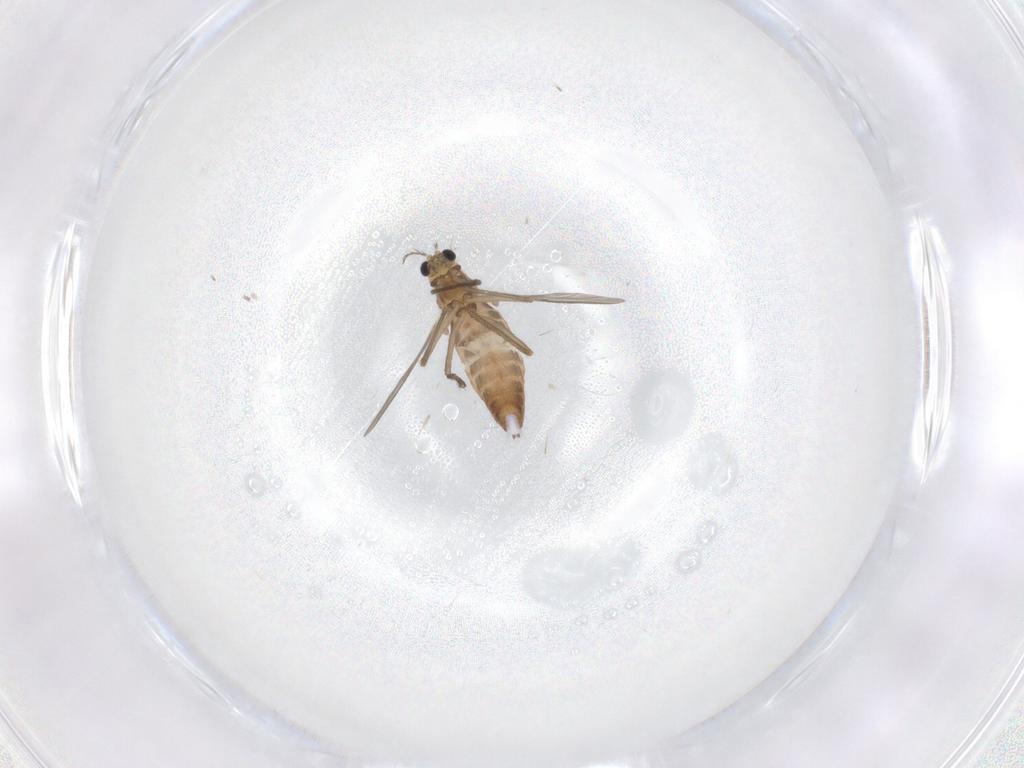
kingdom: Animalia
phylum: Arthropoda
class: Insecta
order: Diptera
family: Chironomidae
